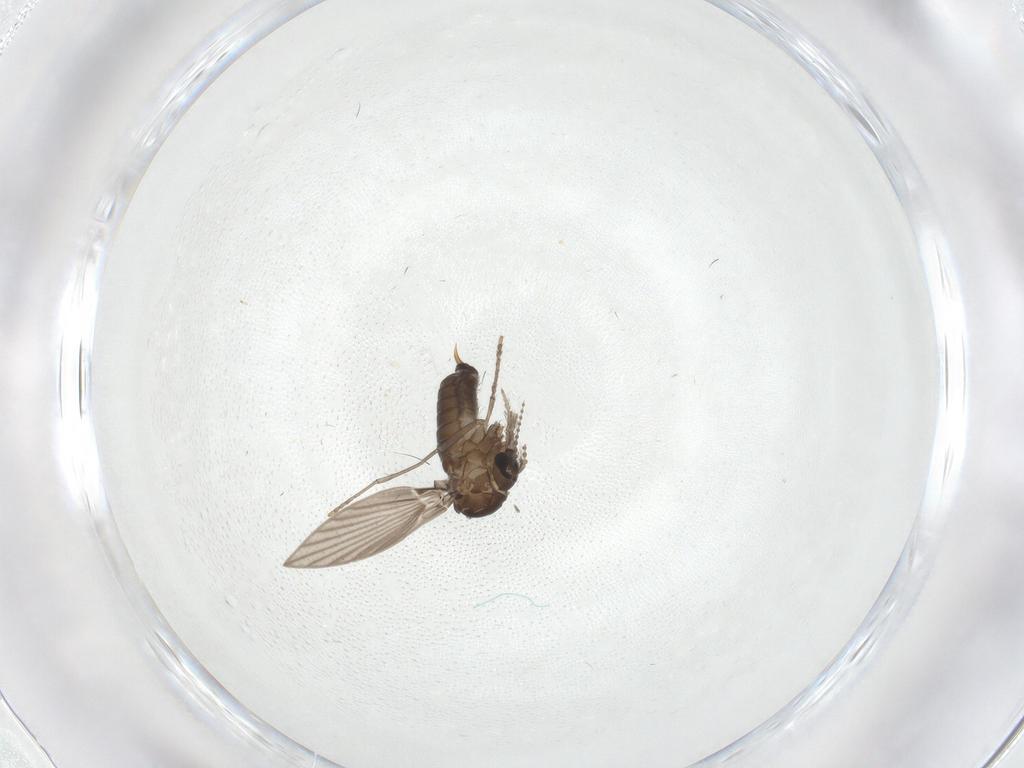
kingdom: Animalia
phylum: Arthropoda
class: Insecta
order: Diptera
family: Psychodidae
